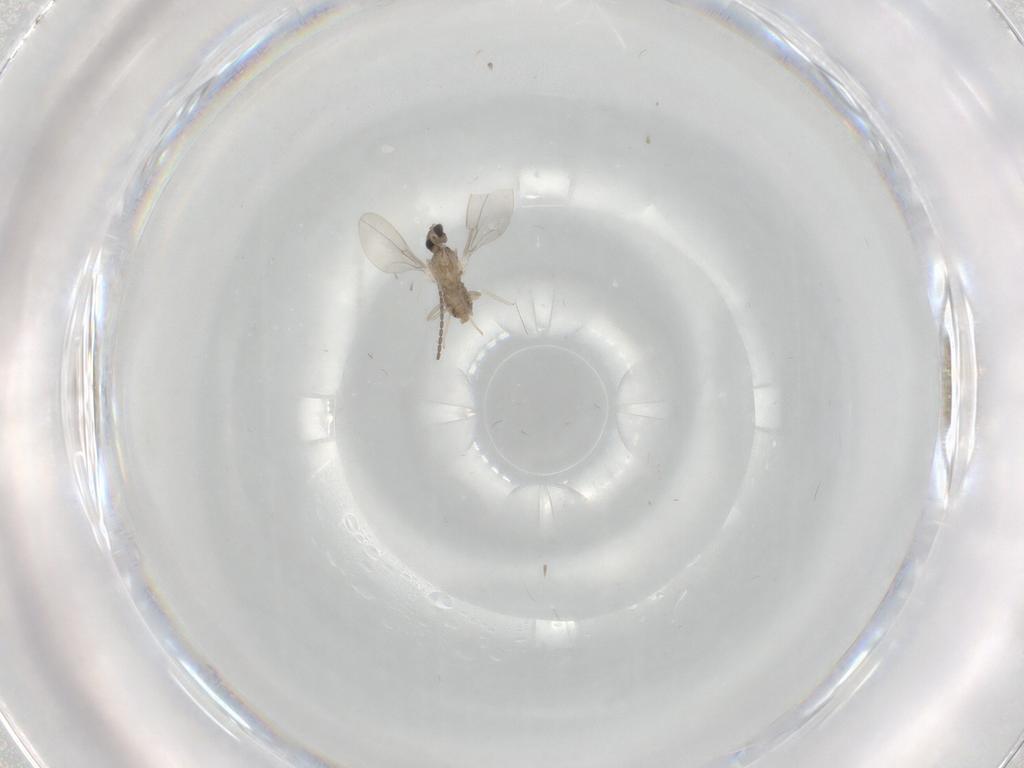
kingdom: Animalia
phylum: Arthropoda
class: Insecta
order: Diptera
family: Cecidomyiidae
